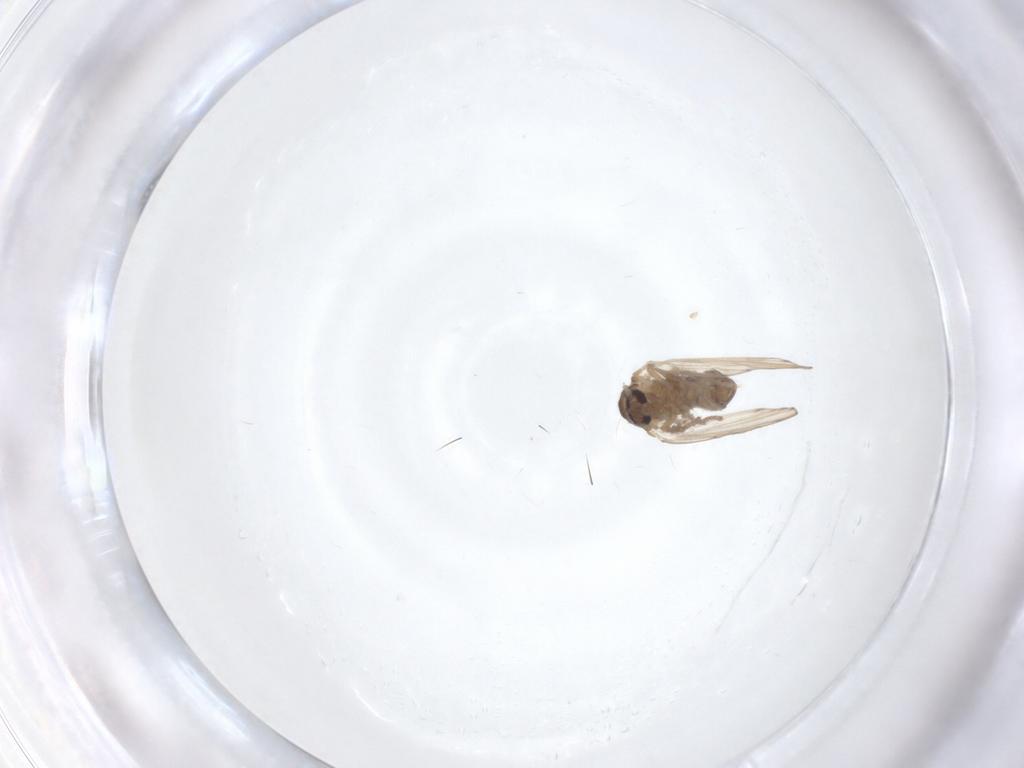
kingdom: Animalia
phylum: Arthropoda
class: Insecta
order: Diptera
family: Psychodidae
